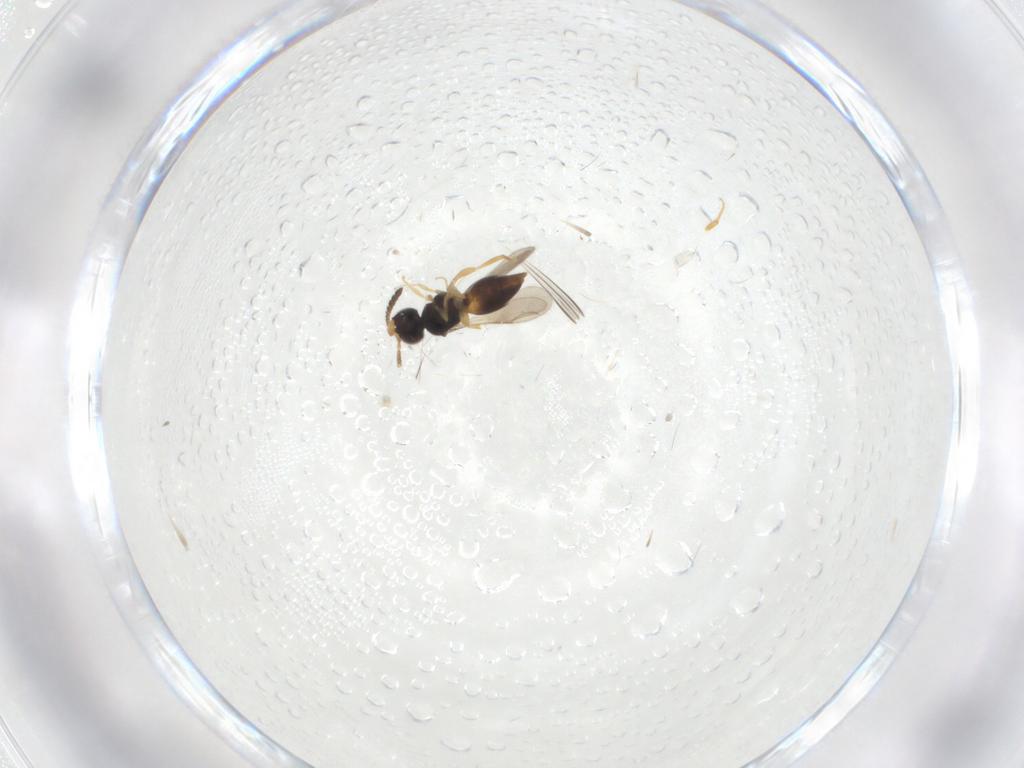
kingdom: Animalia
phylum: Arthropoda
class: Insecta
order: Hymenoptera
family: Ceraphronidae
